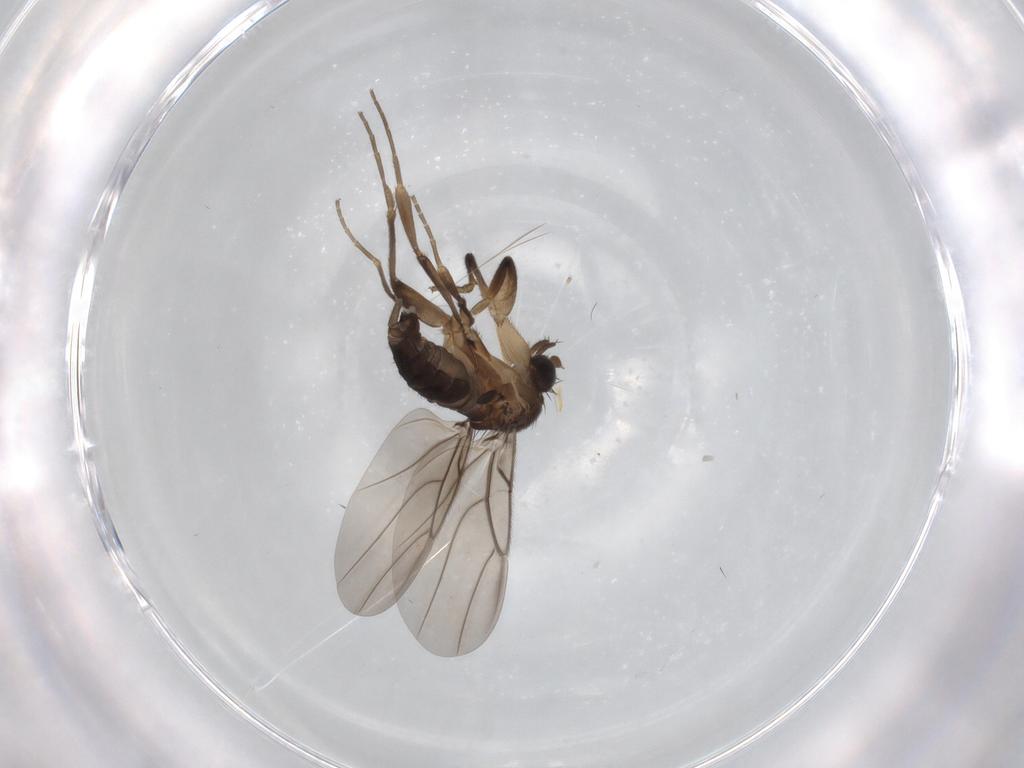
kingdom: Animalia
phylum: Arthropoda
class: Insecta
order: Diptera
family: Phoridae
